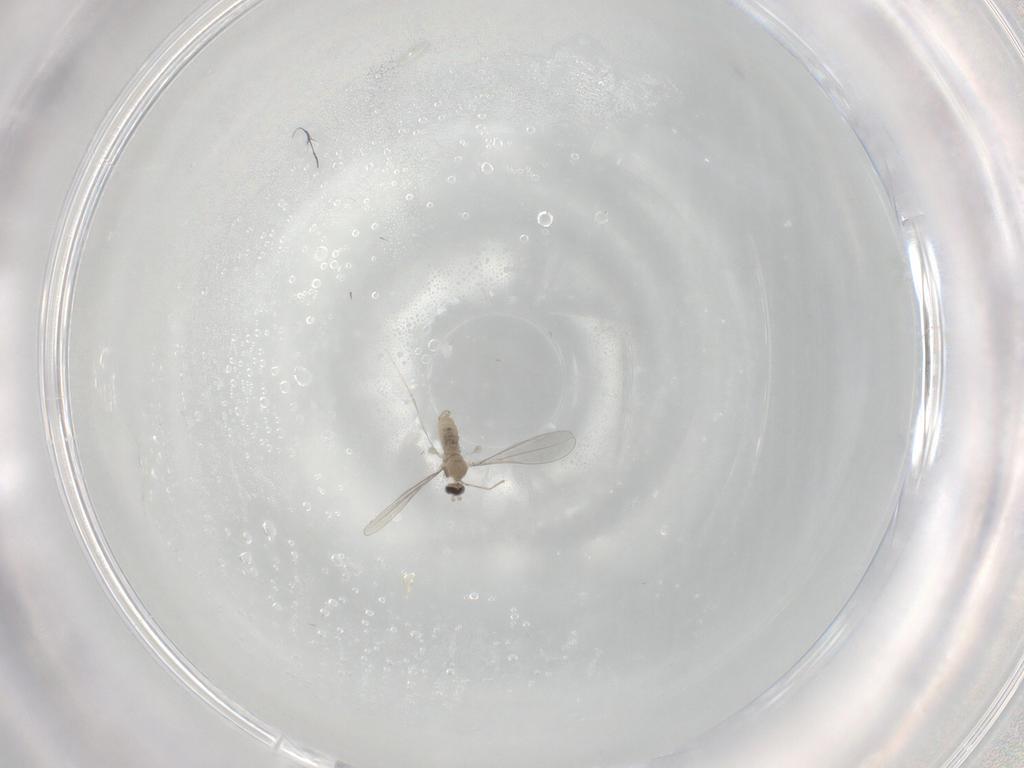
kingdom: Animalia
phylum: Arthropoda
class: Insecta
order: Diptera
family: Cecidomyiidae
